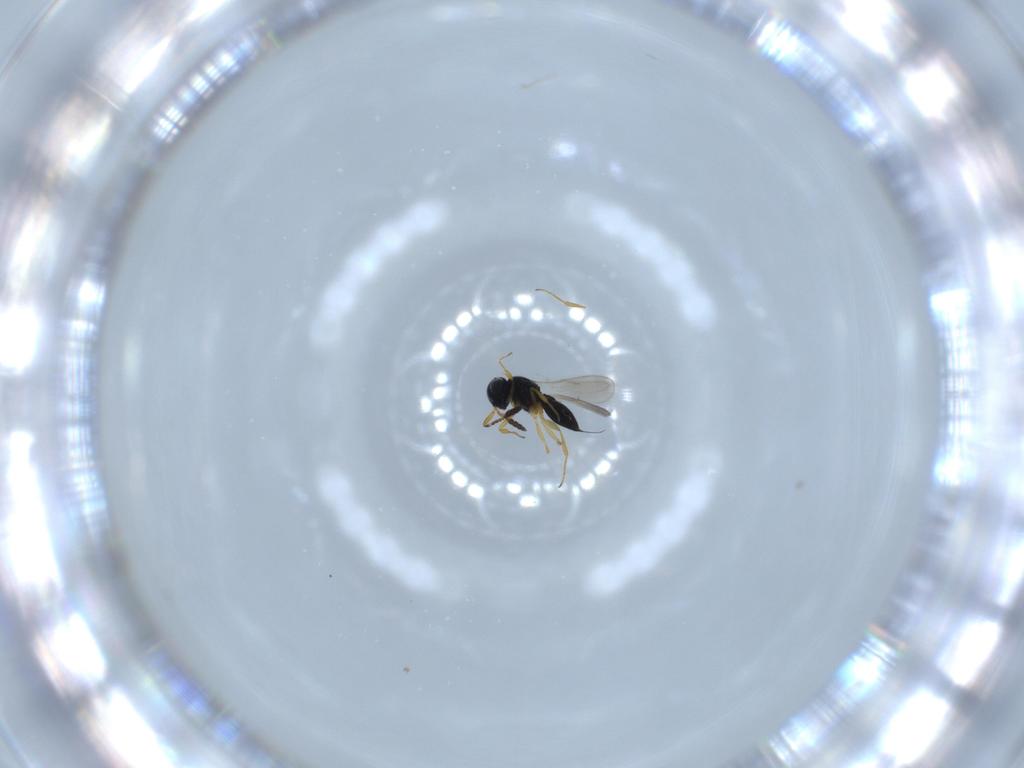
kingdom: Animalia
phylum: Arthropoda
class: Insecta
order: Hymenoptera
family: Scelionidae
